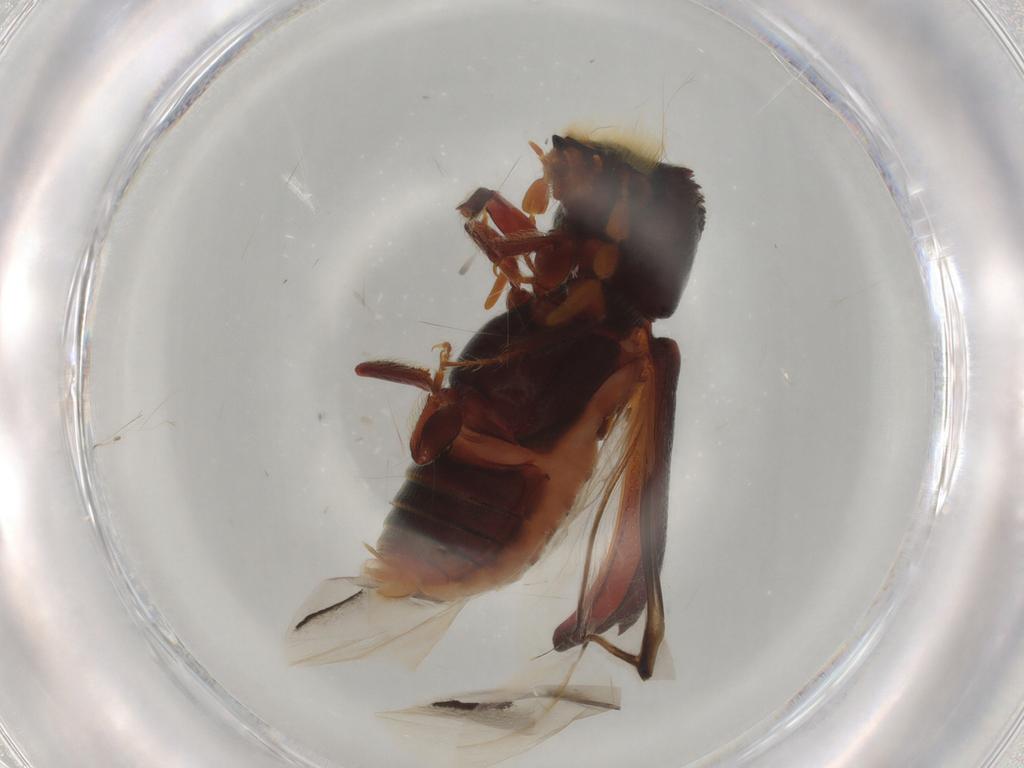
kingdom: Animalia
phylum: Arthropoda
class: Insecta
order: Coleoptera
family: Bostrichidae
